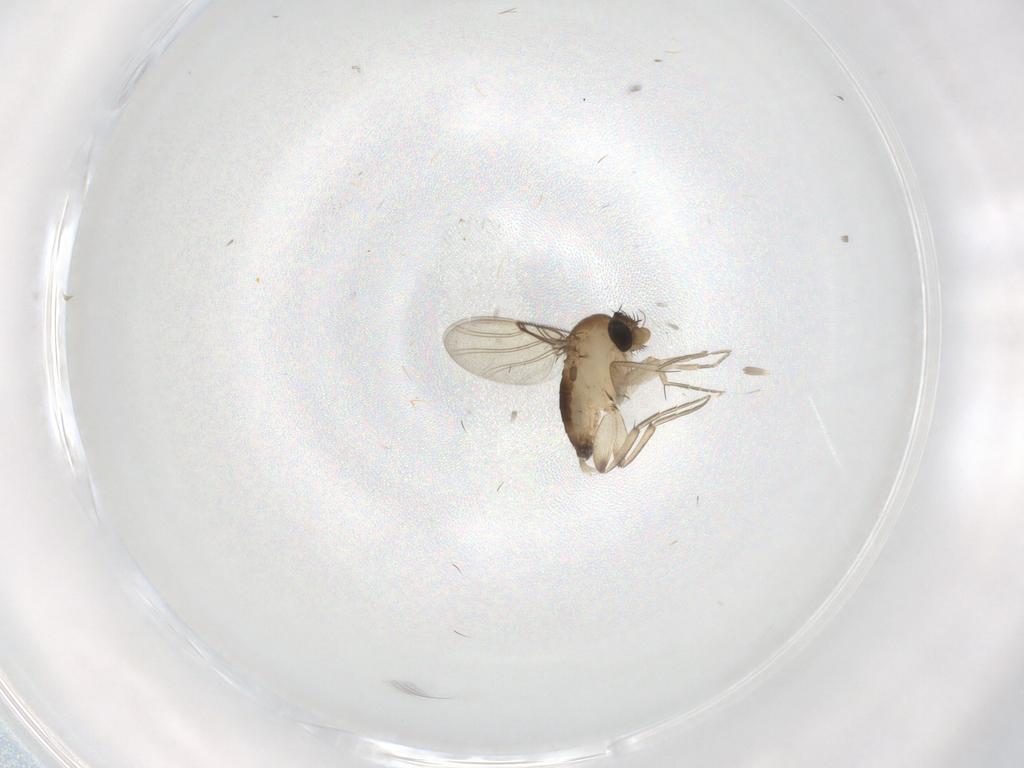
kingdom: Animalia
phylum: Arthropoda
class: Insecta
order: Diptera
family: Phoridae
